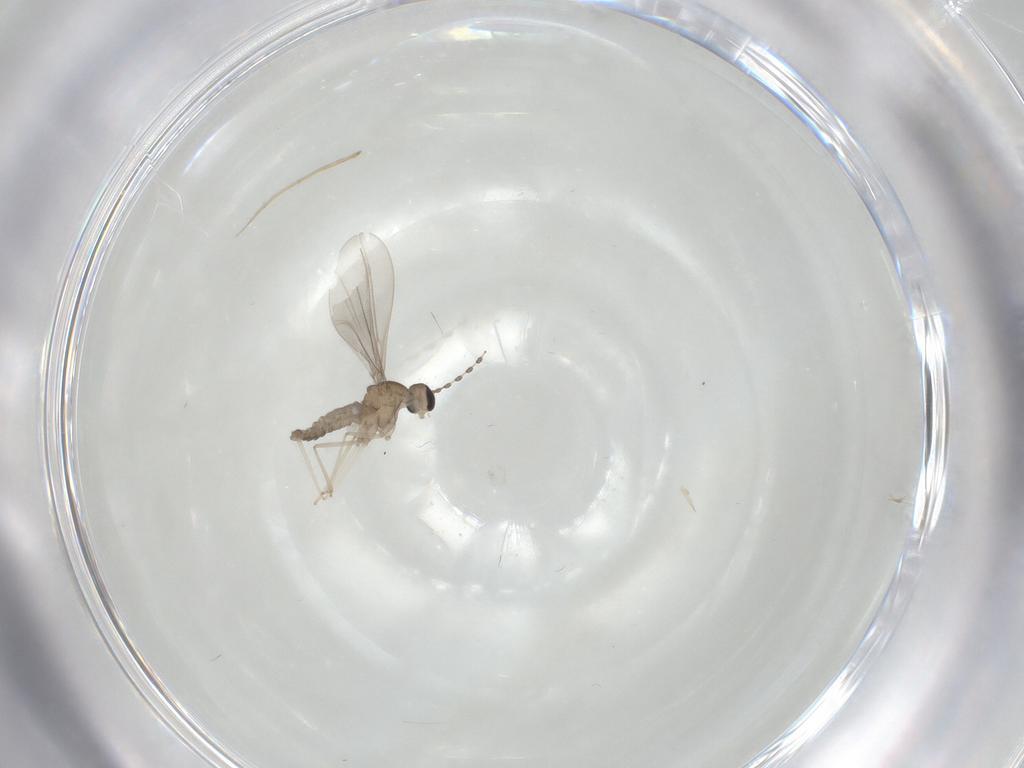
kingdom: Animalia
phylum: Arthropoda
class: Insecta
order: Diptera
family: Cecidomyiidae
